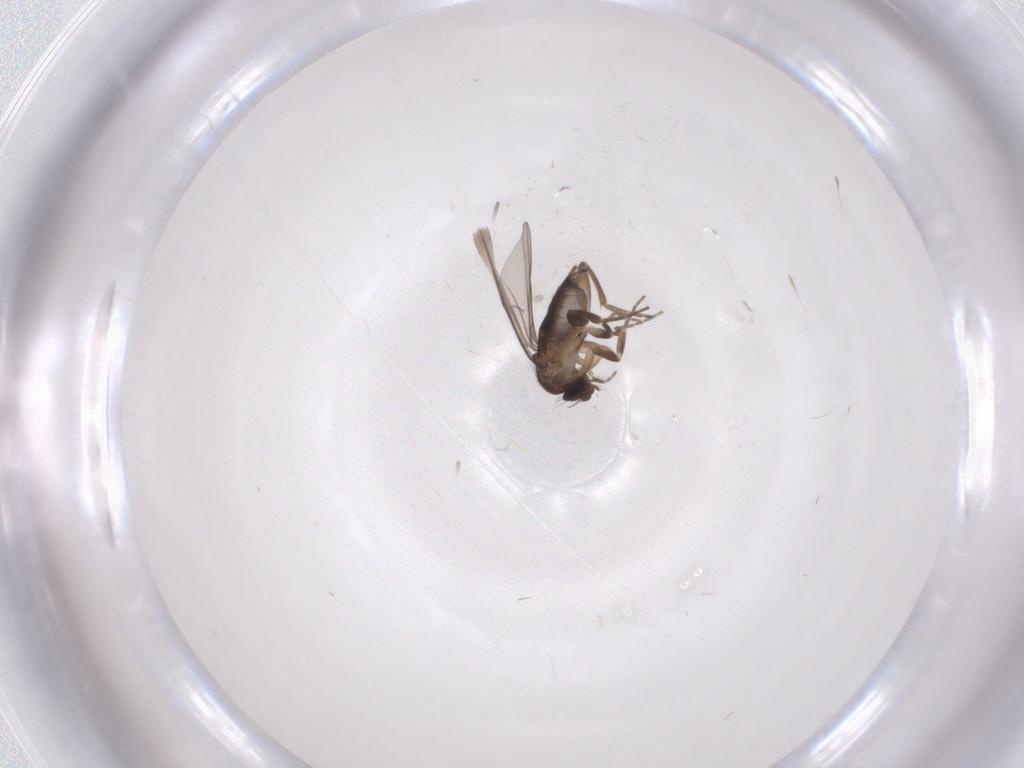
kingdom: Animalia
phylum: Arthropoda
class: Insecta
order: Diptera
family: Phoridae
